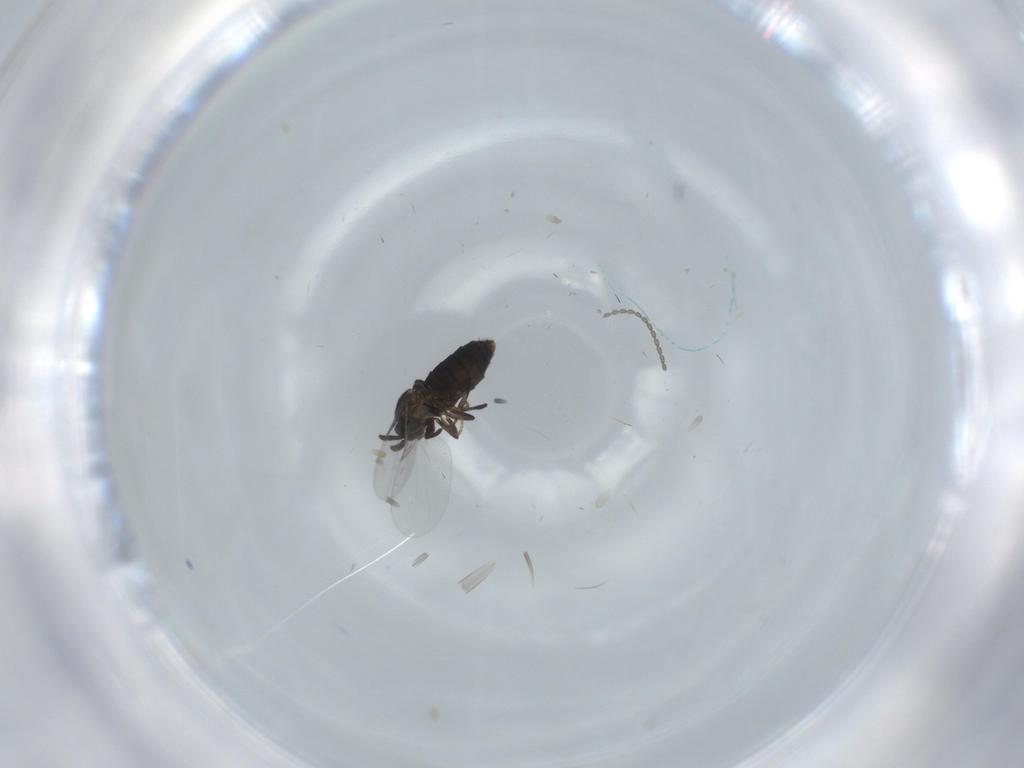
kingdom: Animalia
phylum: Arthropoda
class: Insecta
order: Diptera
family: Scatopsidae
